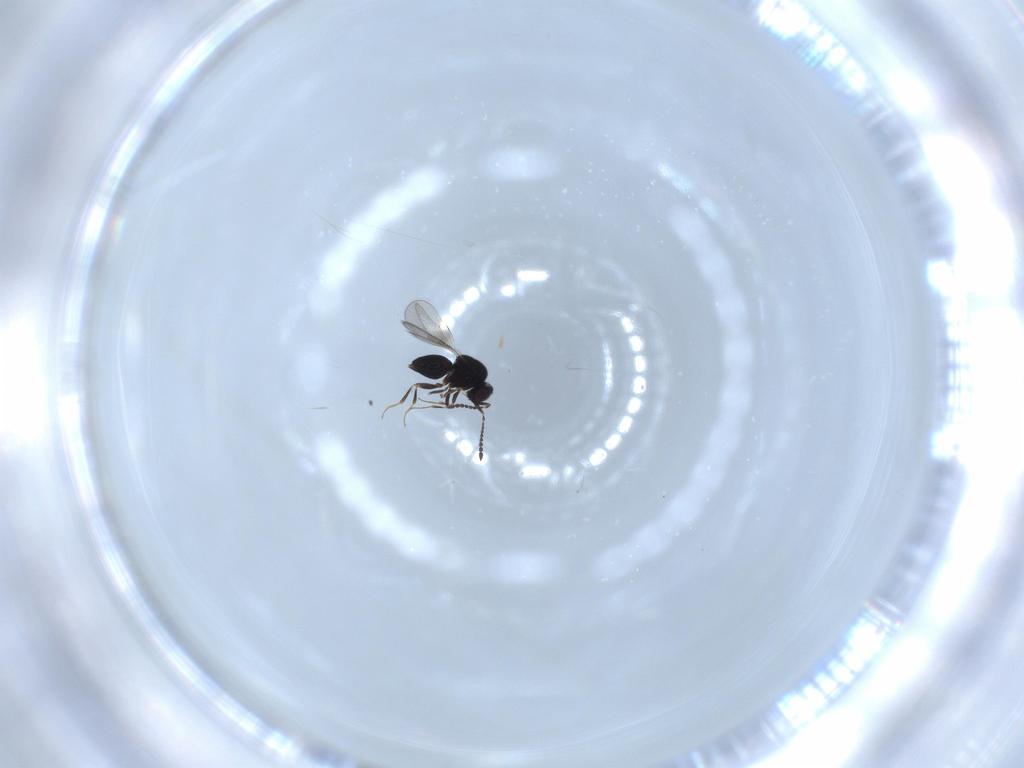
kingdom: Animalia
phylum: Arthropoda
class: Insecta
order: Hymenoptera
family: Ceraphronidae
